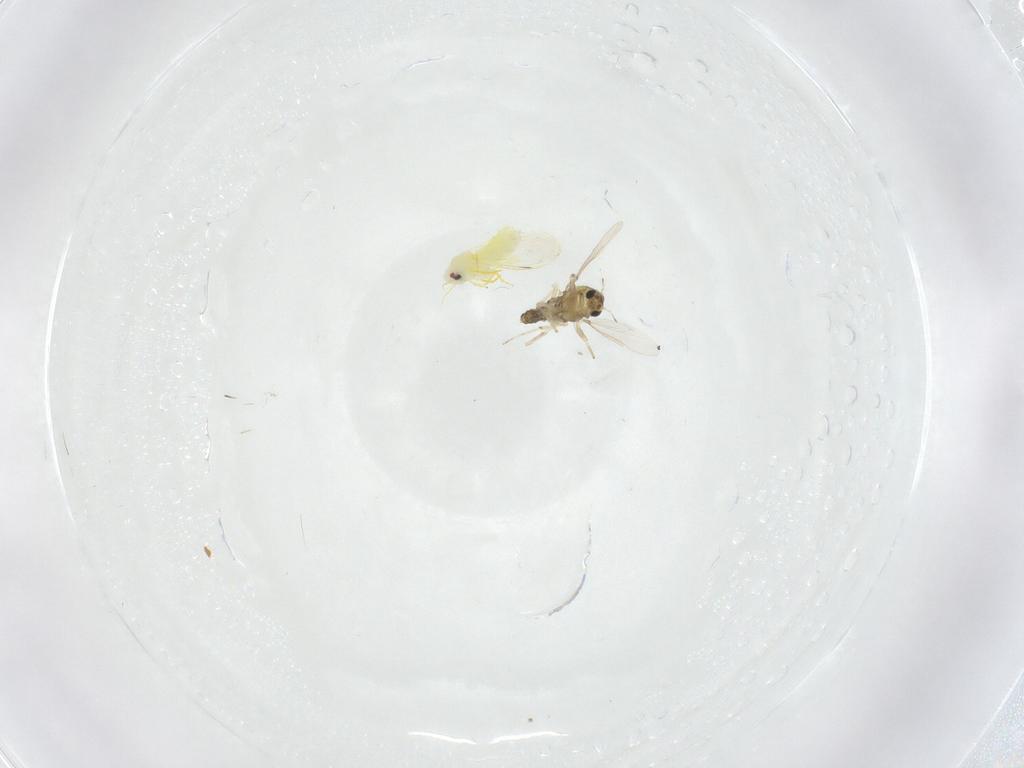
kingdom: Animalia
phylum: Arthropoda
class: Insecta
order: Hemiptera
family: Aleyrodidae
